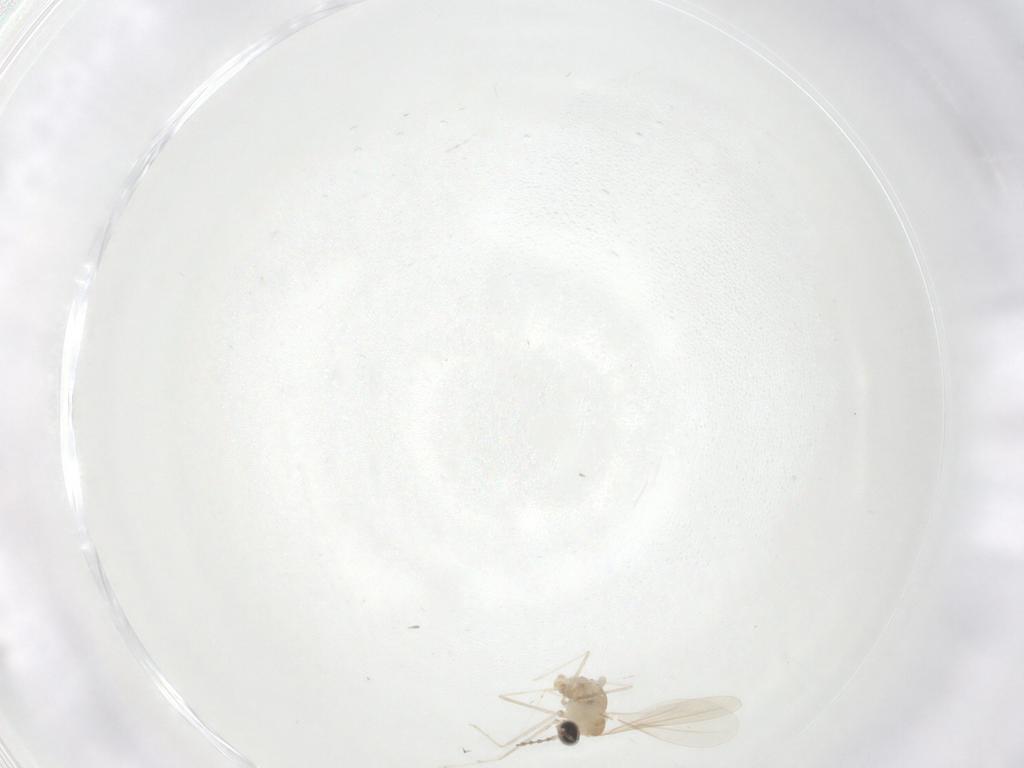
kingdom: Animalia
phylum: Arthropoda
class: Insecta
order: Diptera
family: Cecidomyiidae
